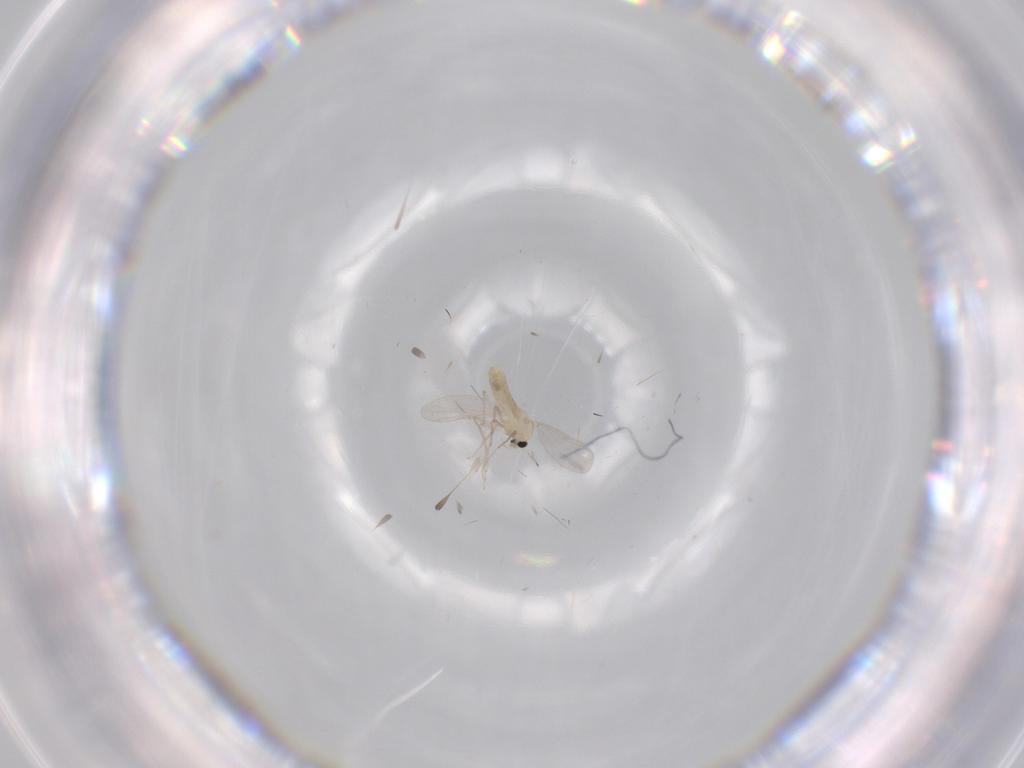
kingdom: Animalia
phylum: Arthropoda
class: Insecta
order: Diptera
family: Chironomidae
